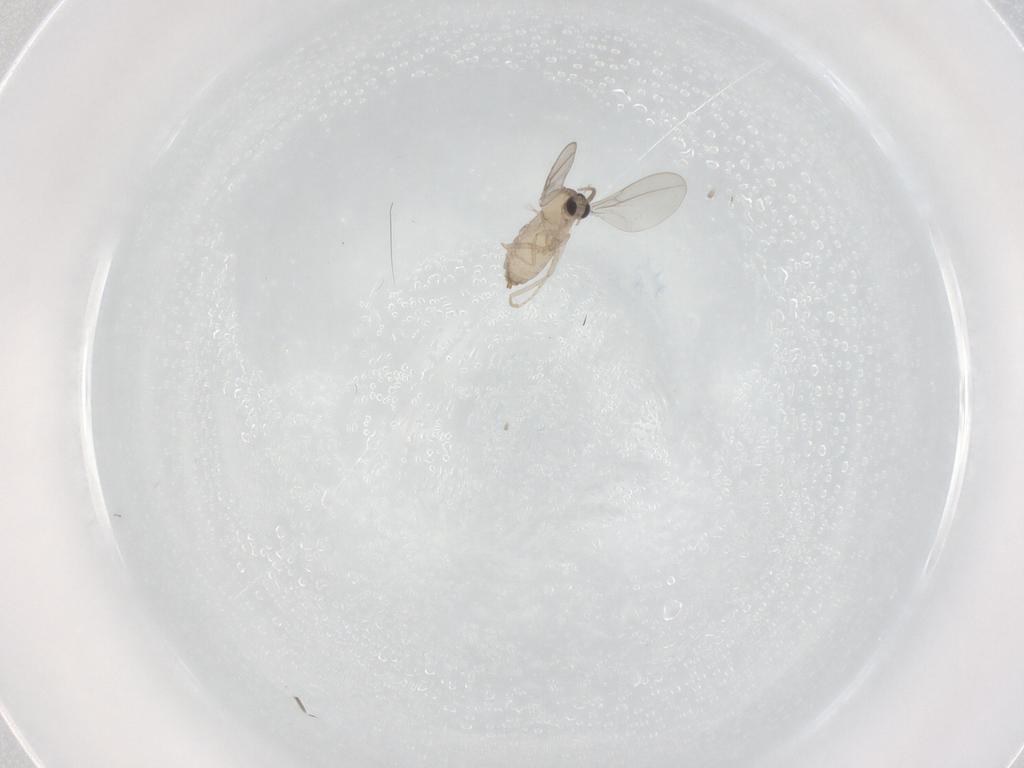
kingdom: Animalia
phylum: Arthropoda
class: Insecta
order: Diptera
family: Cecidomyiidae
